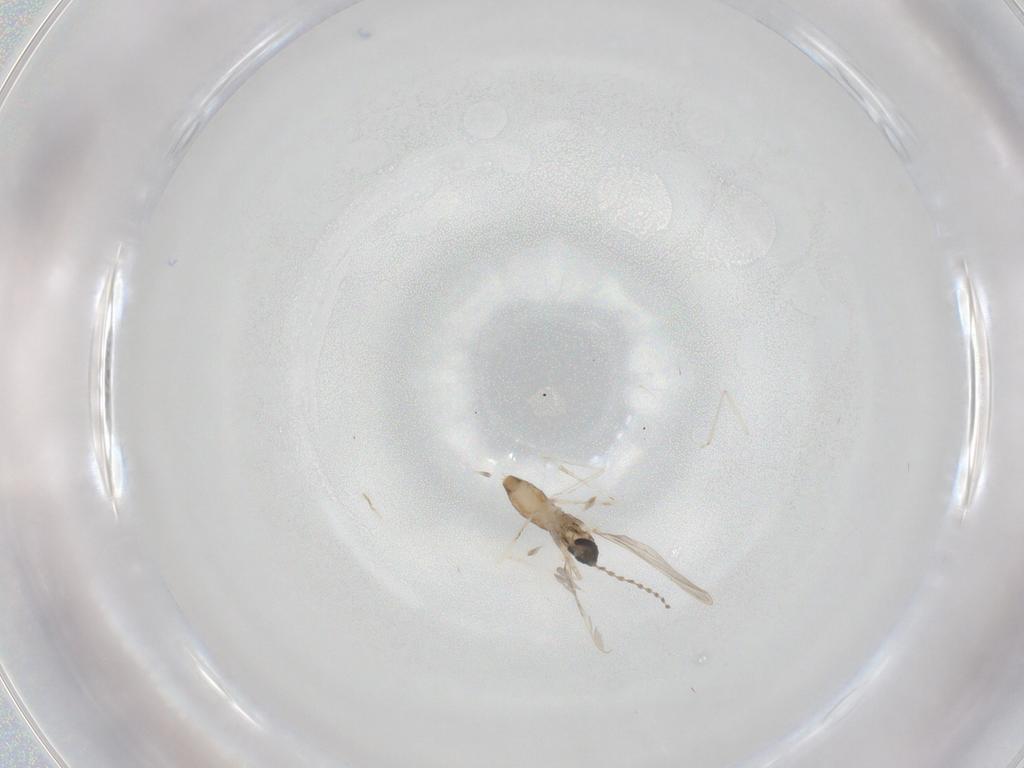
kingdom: Animalia
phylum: Arthropoda
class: Insecta
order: Diptera
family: Cecidomyiidae
